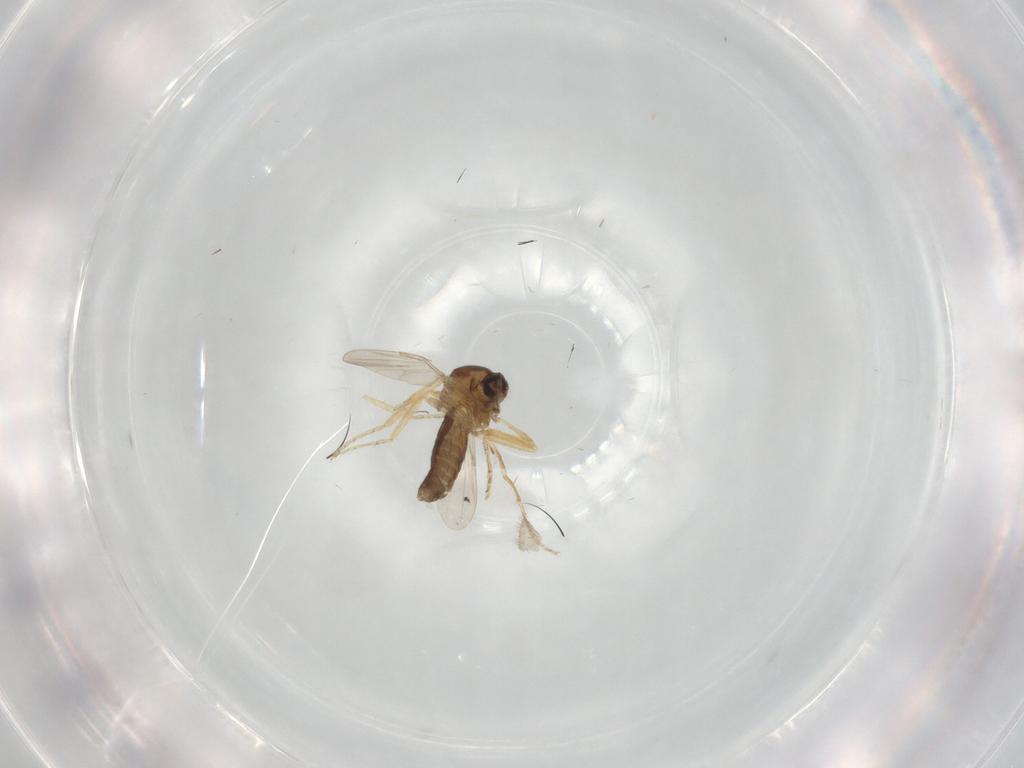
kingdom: Animalia
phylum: Arthropoda
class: Insecta
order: Diptera
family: Ceratopogonidae
